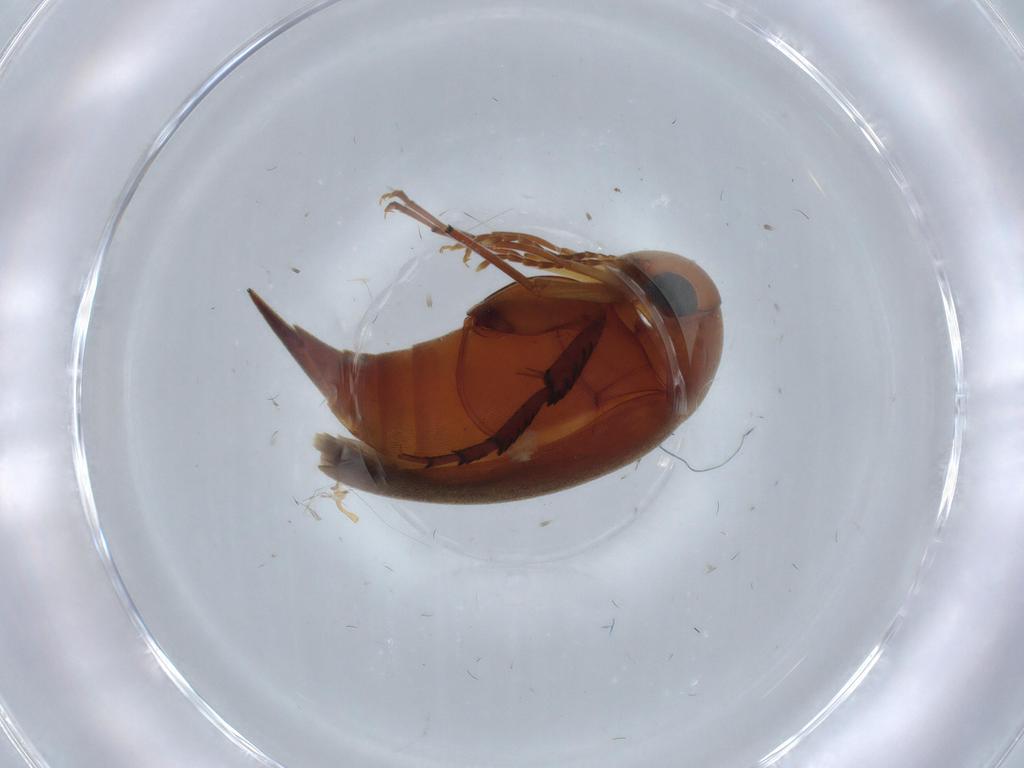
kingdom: Animalia
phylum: Arthropoda
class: Insecta
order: Coleoptera
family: Mordellidae
